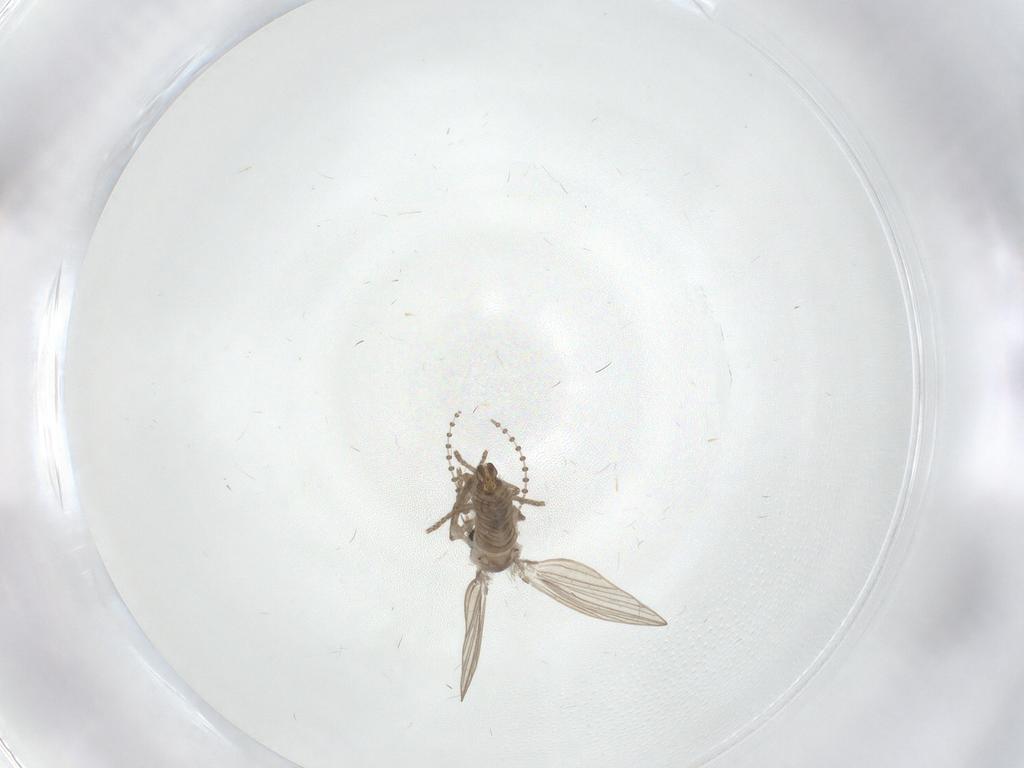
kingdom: Animalia
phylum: Arthropoda
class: Insecta
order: Diptera
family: Psychodidae
